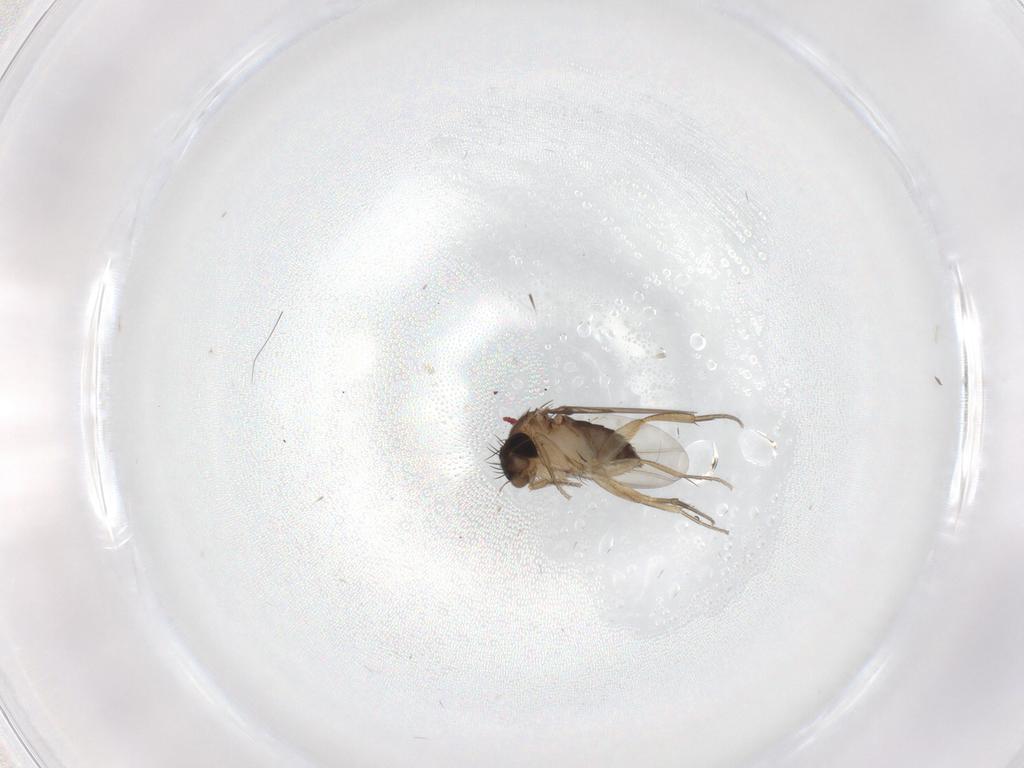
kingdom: Animalia
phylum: Arthropoda
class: Insecta
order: Diptera
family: Phoridae
